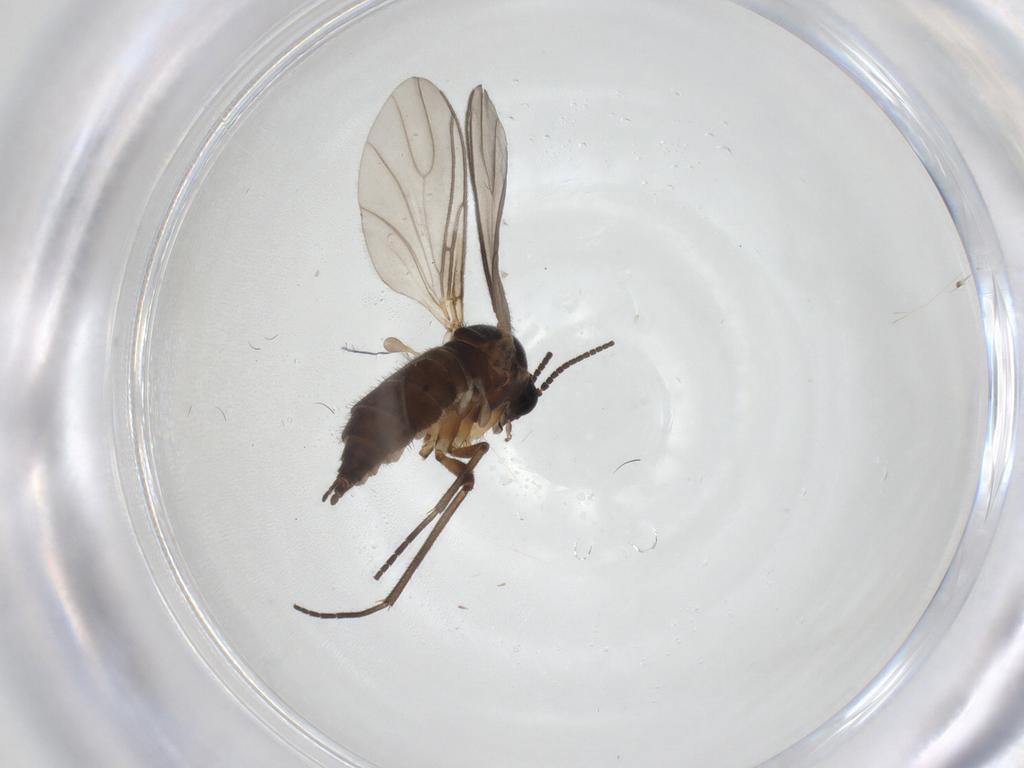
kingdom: Animalia
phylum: Arthropoda
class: Insecta
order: Diptera
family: Sciaridae
